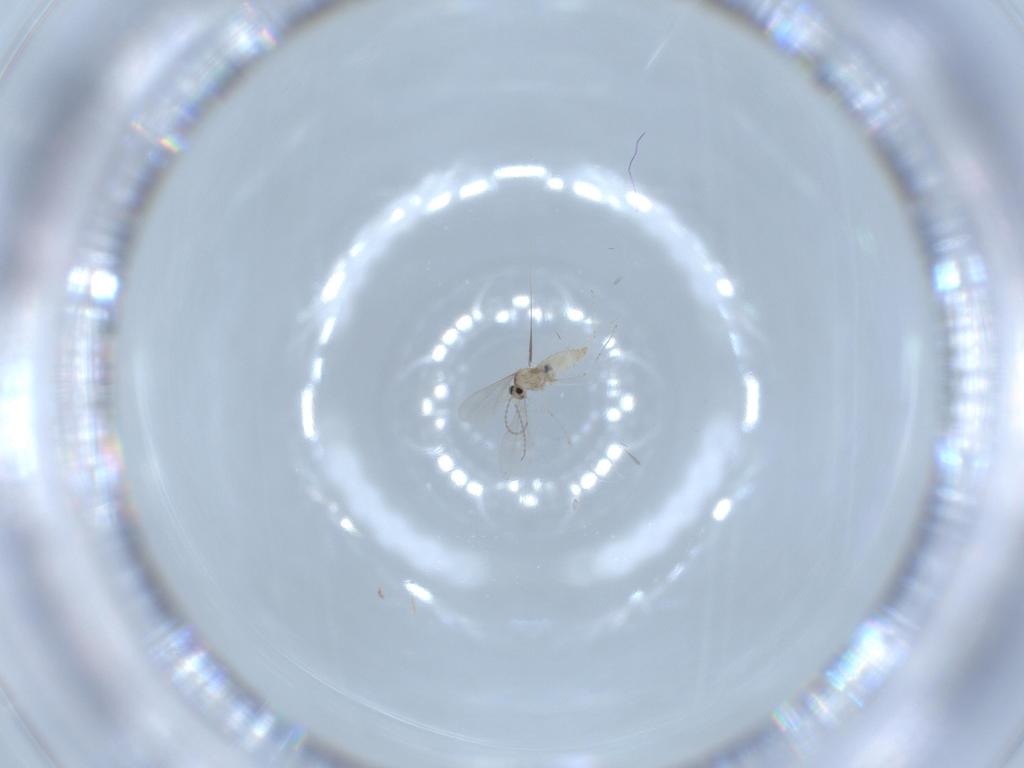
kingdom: Animalia
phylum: Arthropoda
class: Insecta
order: Diptera
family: Cecidomyiidae
